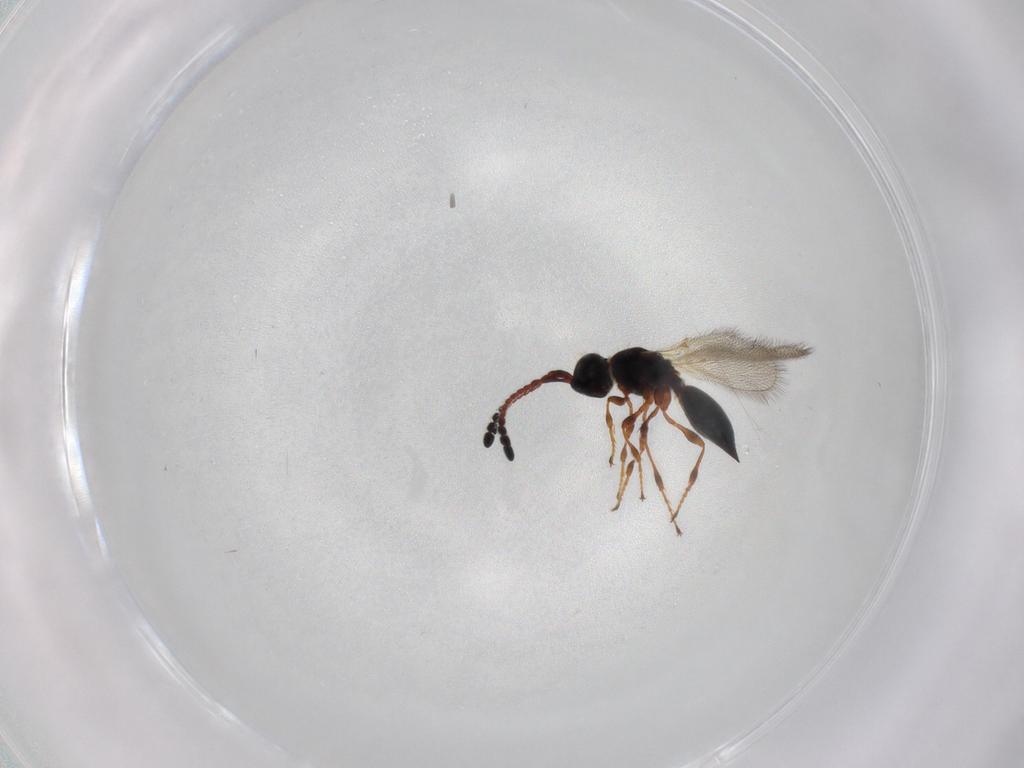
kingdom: Animalia
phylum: Arthropoda
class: Insecta
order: Hymenoptera
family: Diapriidae
